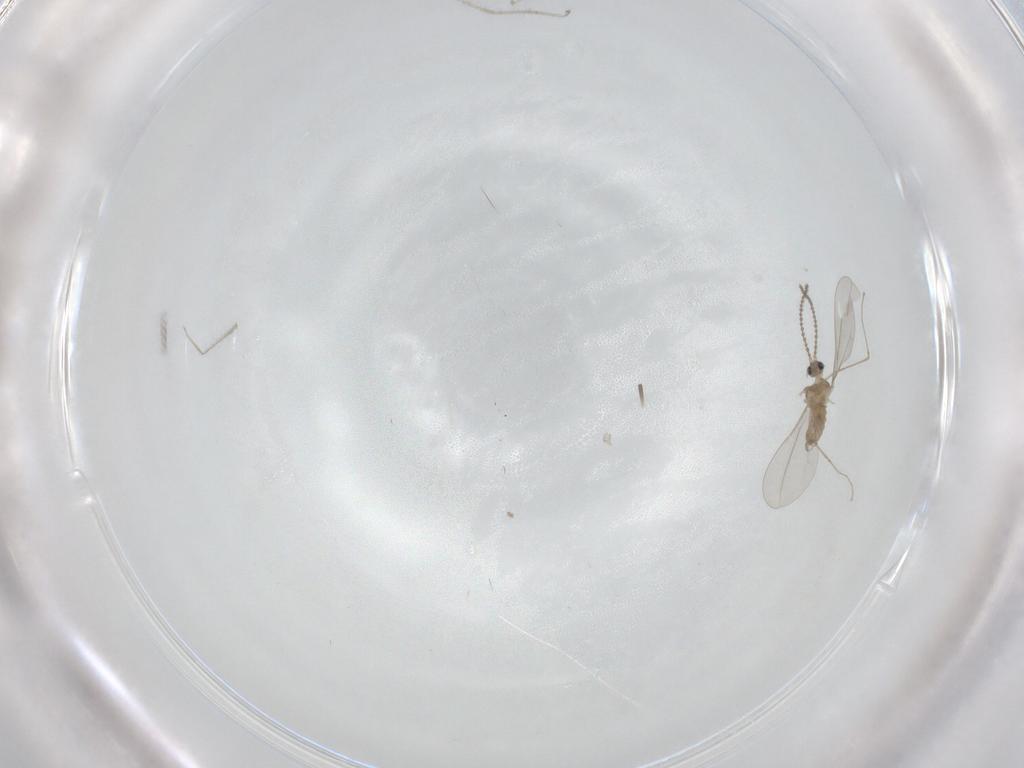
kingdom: Animalia
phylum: Arthropoda
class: Insecta
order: Diptera
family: Cecidomyiidae
